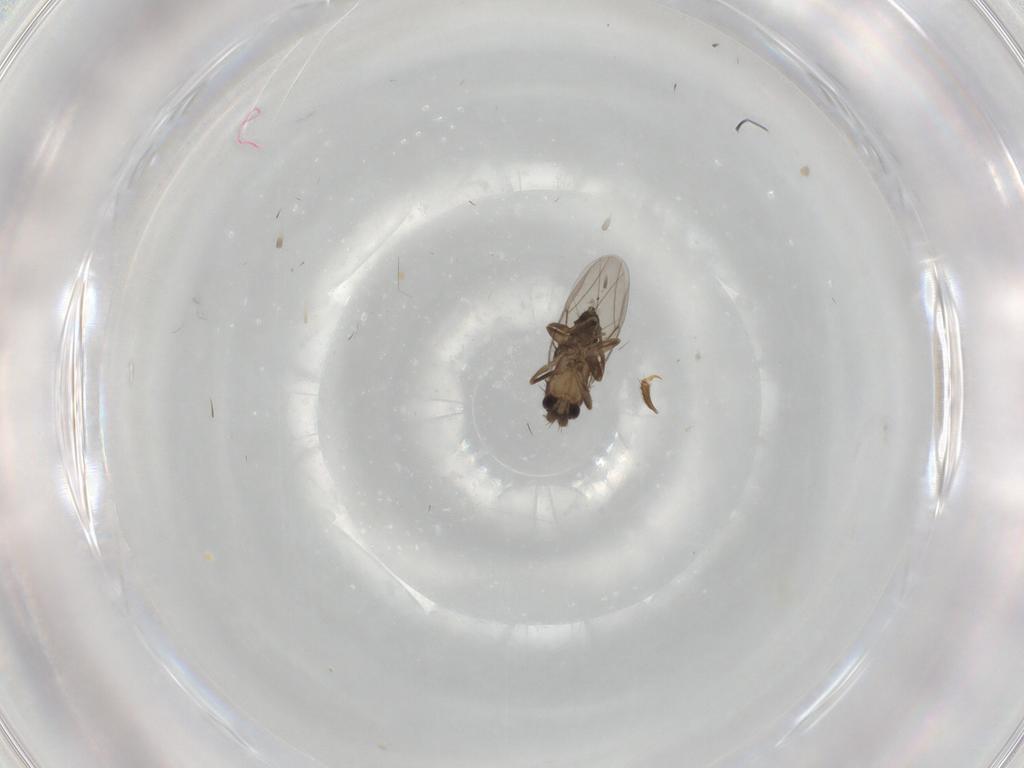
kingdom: Animalia
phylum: Arthropoda
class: Insecta
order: Diptera
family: Phoridae
